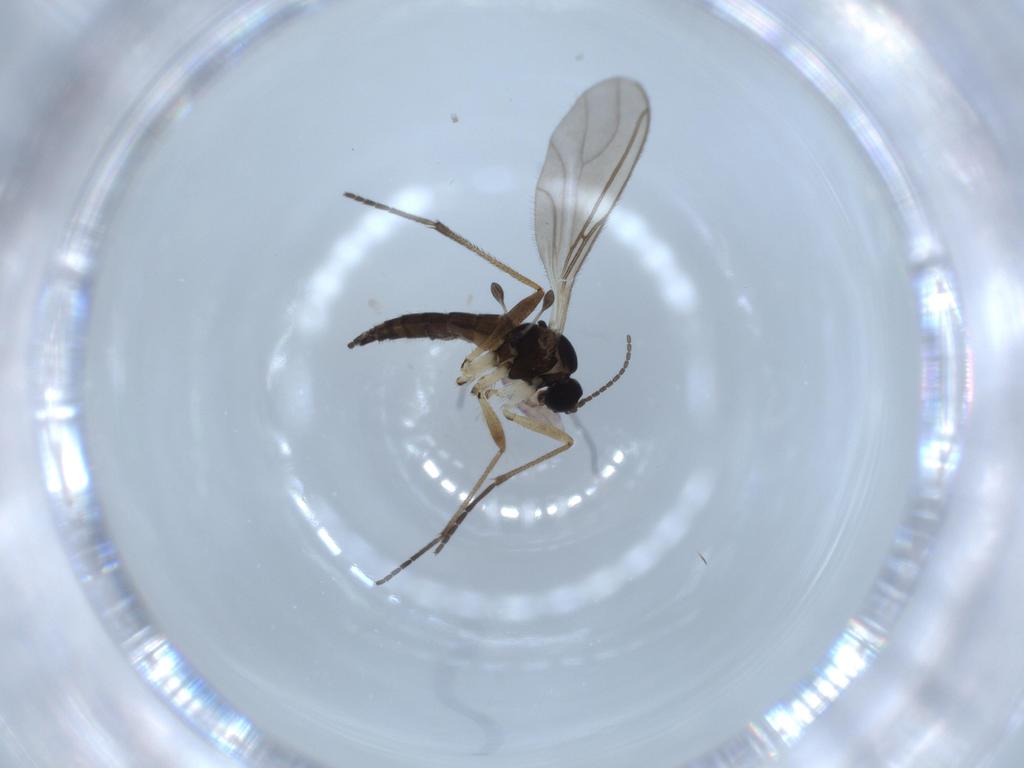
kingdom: Animalia
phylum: Arthropoda
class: Insecta
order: Diptera
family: Sciaridae
